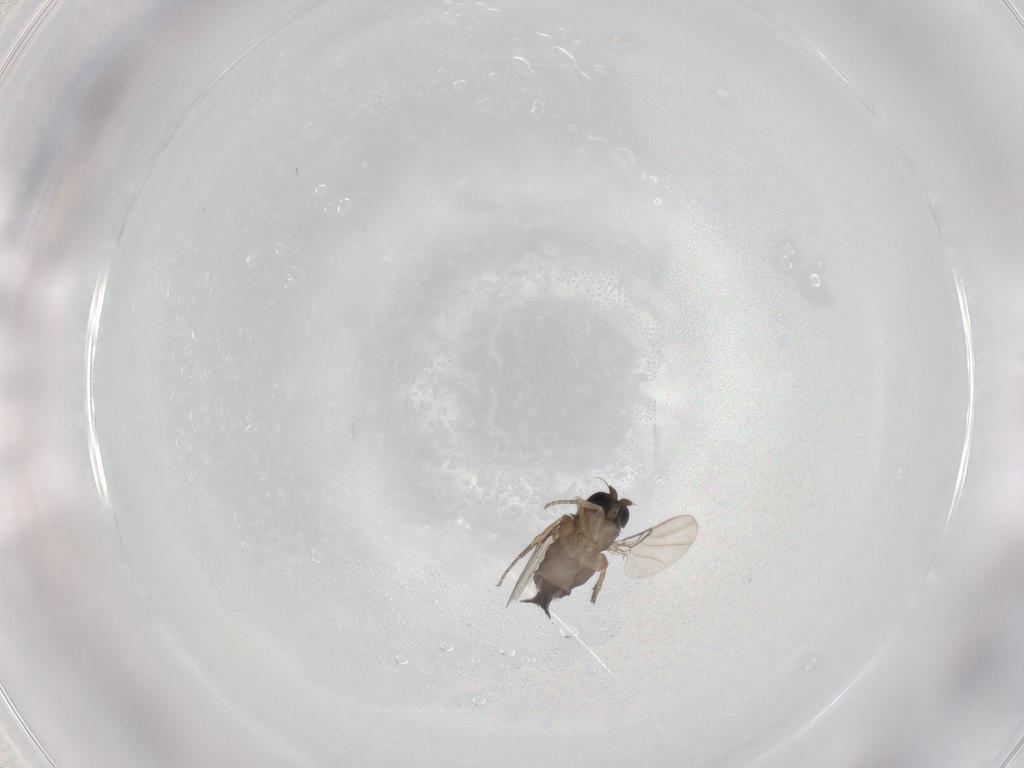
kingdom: Animalia
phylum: Arthropoda
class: Insecta
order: Diptera
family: Phoridae
